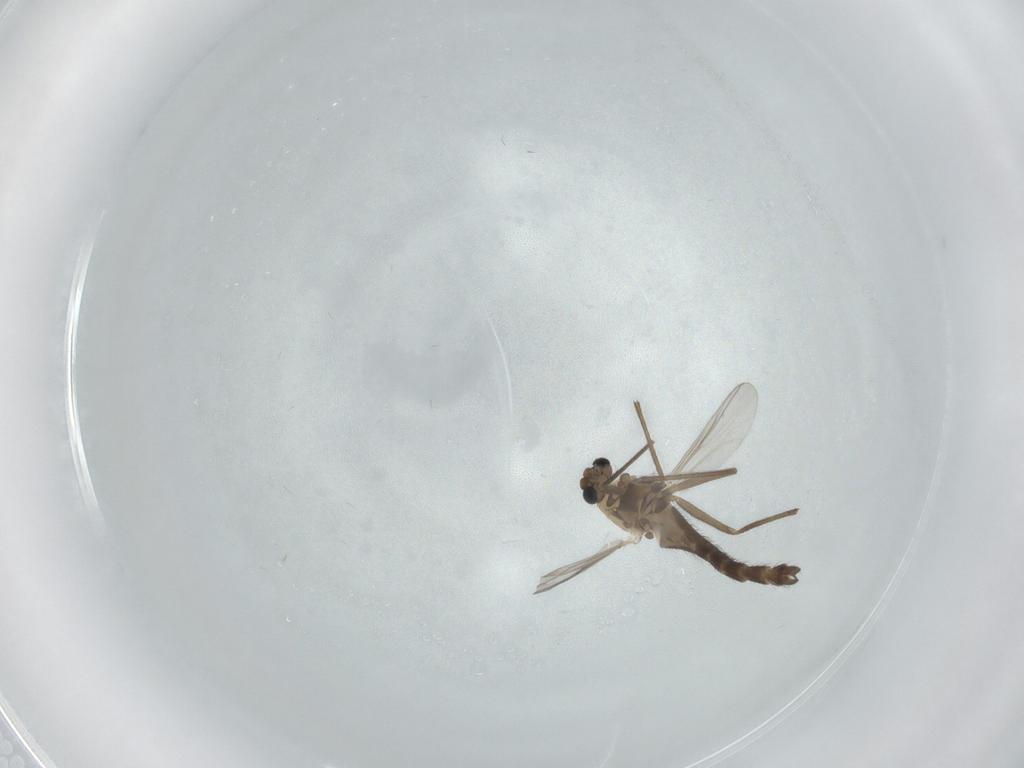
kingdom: Animalia
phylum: Arthropoda
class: Insecta
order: Diptera
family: Chironomidae
